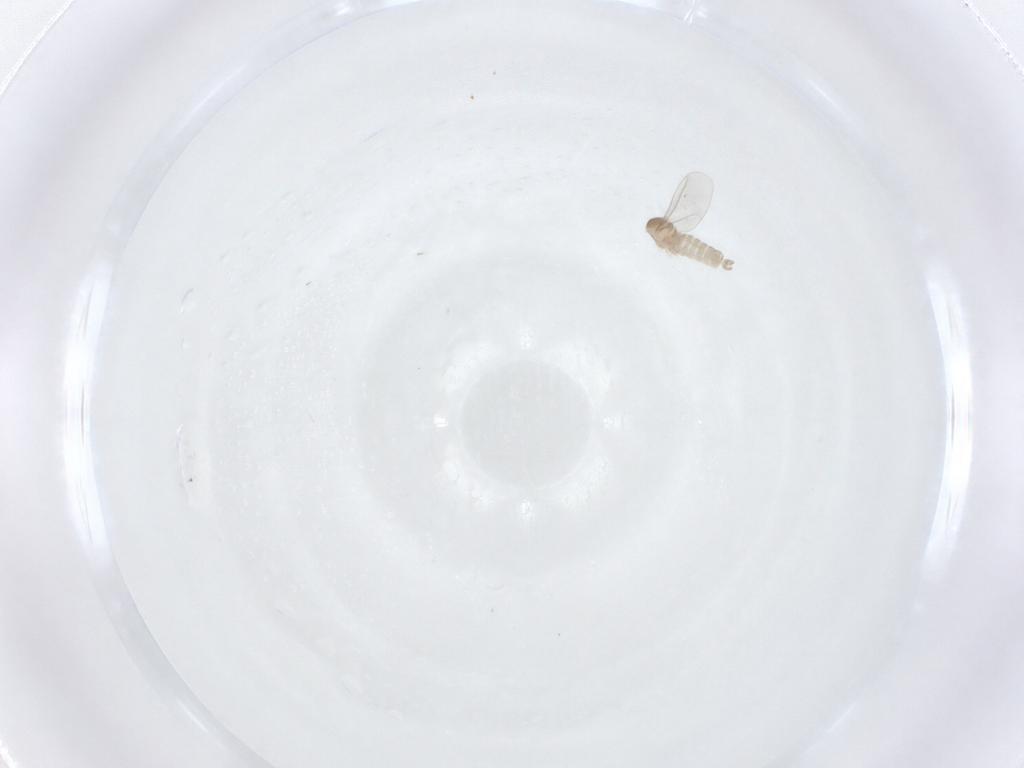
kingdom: Animalia
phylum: Arthropoda
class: Insecta
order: Diptera
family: Cecidomyiidae
